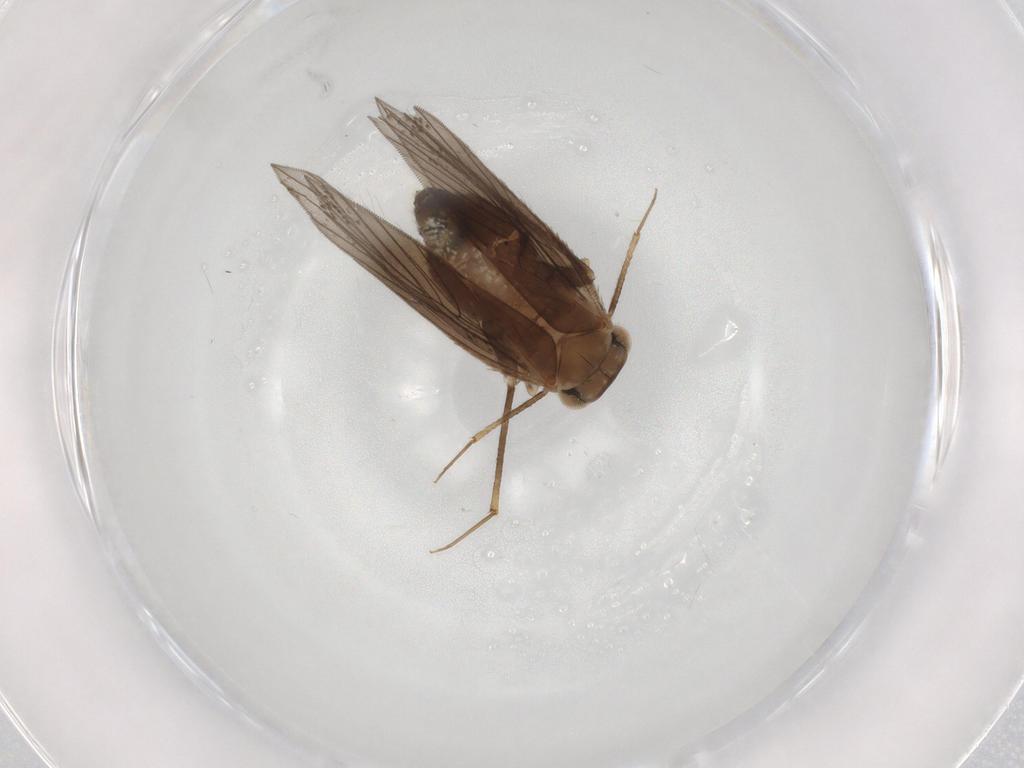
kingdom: Animalia
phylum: Arthropoda
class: Insecta
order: Psocodea
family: Lepidopsocidae
